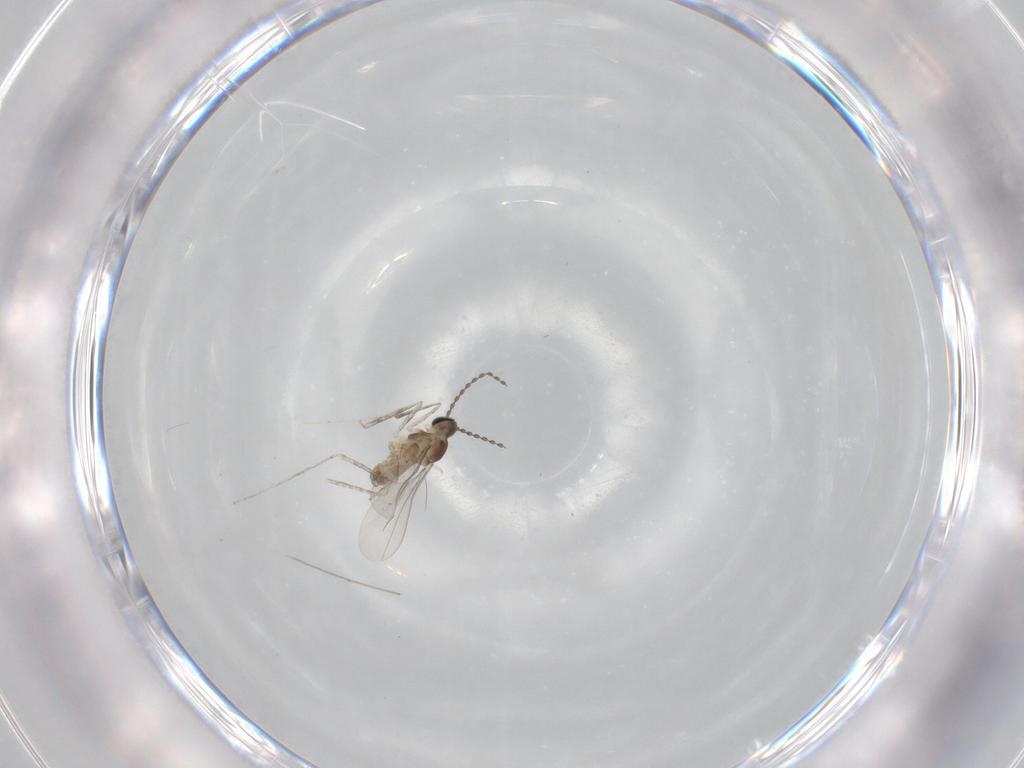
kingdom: Animalia
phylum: Arthropoda
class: Insecta
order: Diptera
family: Cecidomyiidae
